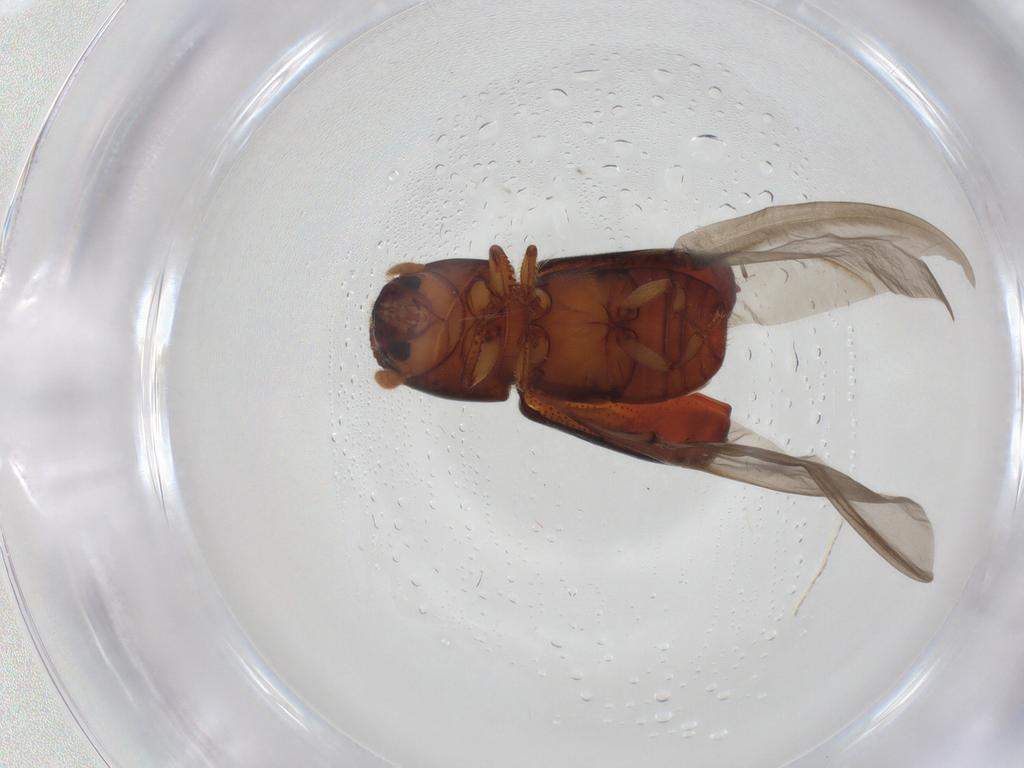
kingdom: Animalia
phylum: Arthropoda
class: Insecta
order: Coleoptera
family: Curculionidae
